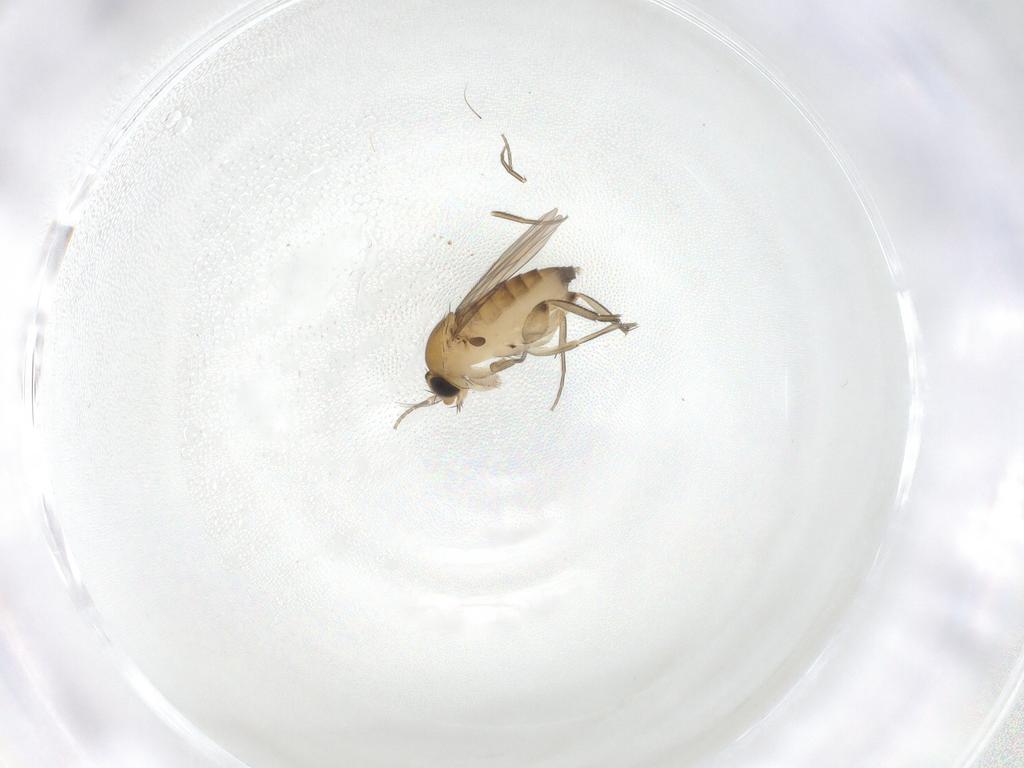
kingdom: Animalia
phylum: Arthropoda
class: Insecta
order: Diptera
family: Phoridae
